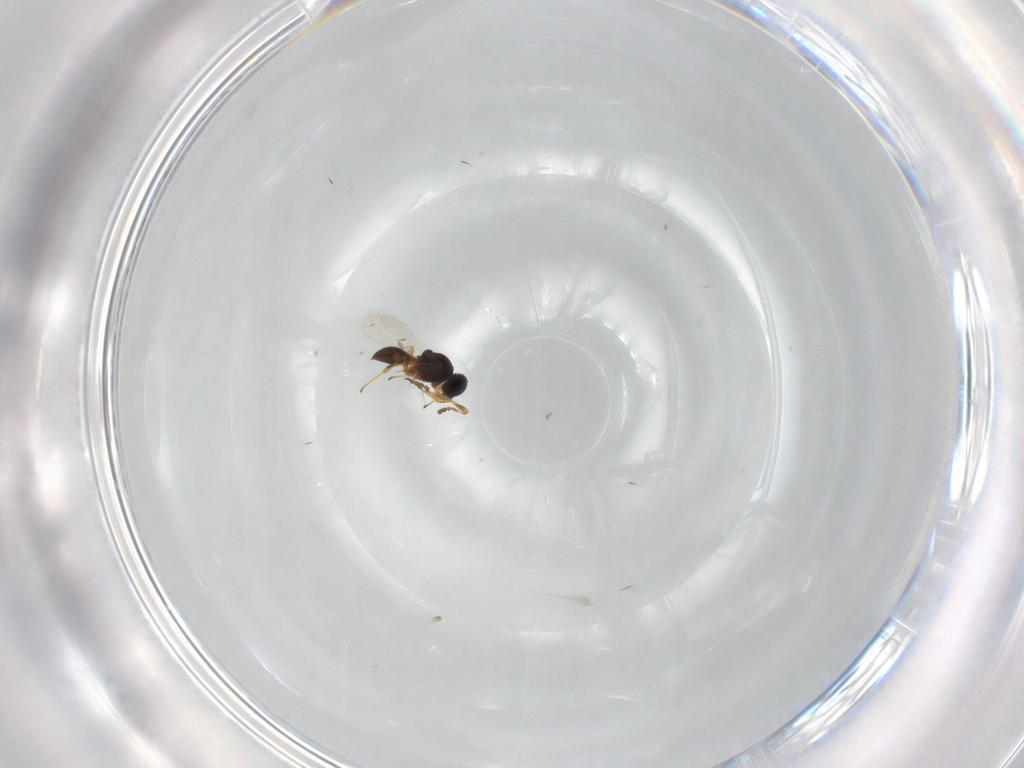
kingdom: Animalia
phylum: Arthropoda
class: Insecta
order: Hymenoptera
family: Platygastridae
